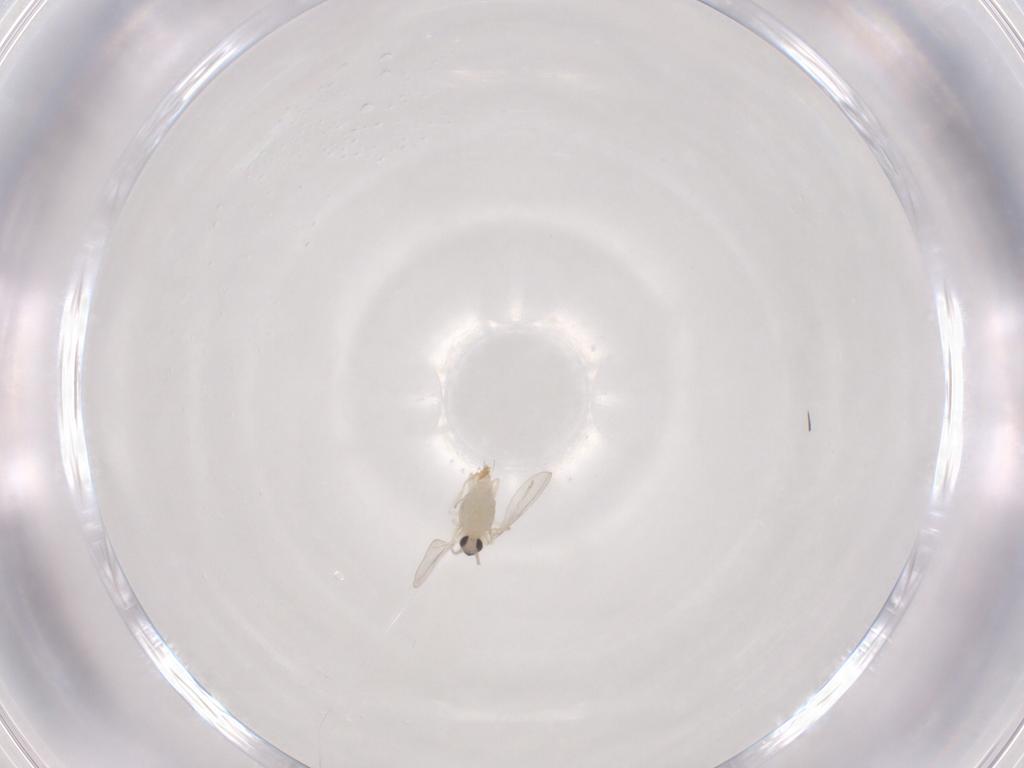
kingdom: Animalia
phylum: Arthropoda
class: Insecta
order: Diptera
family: Cecidomyiidae
